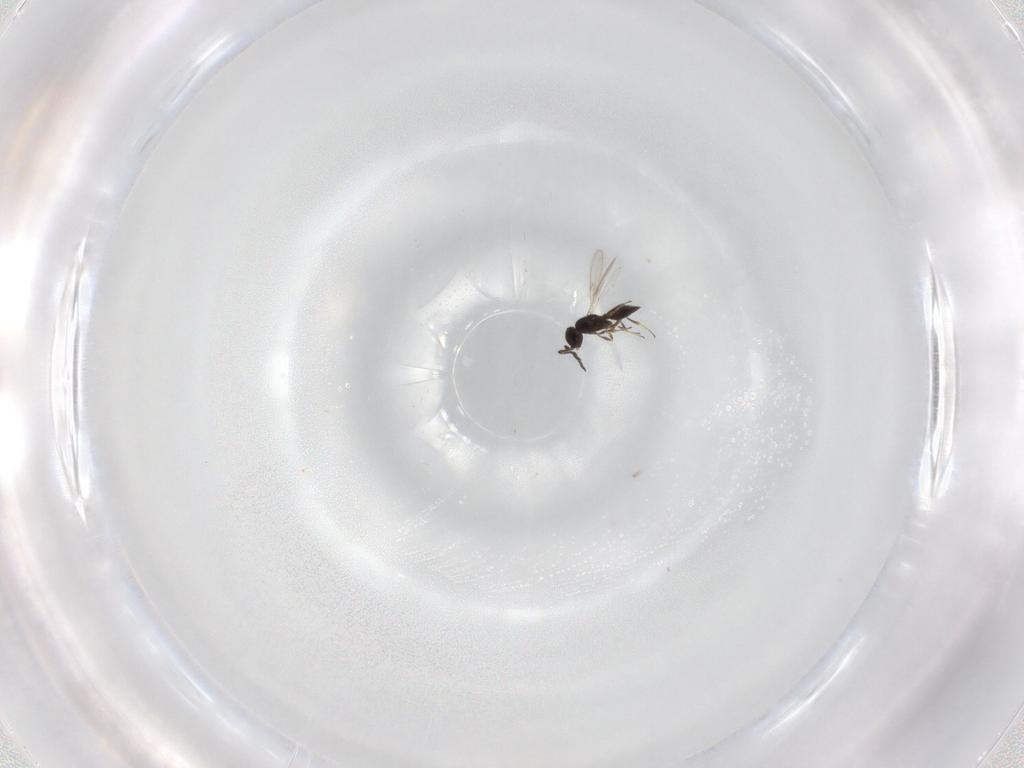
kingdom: Animalia
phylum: Arthropoda
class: Insecta
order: Hymenoptera
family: Scelionidae
